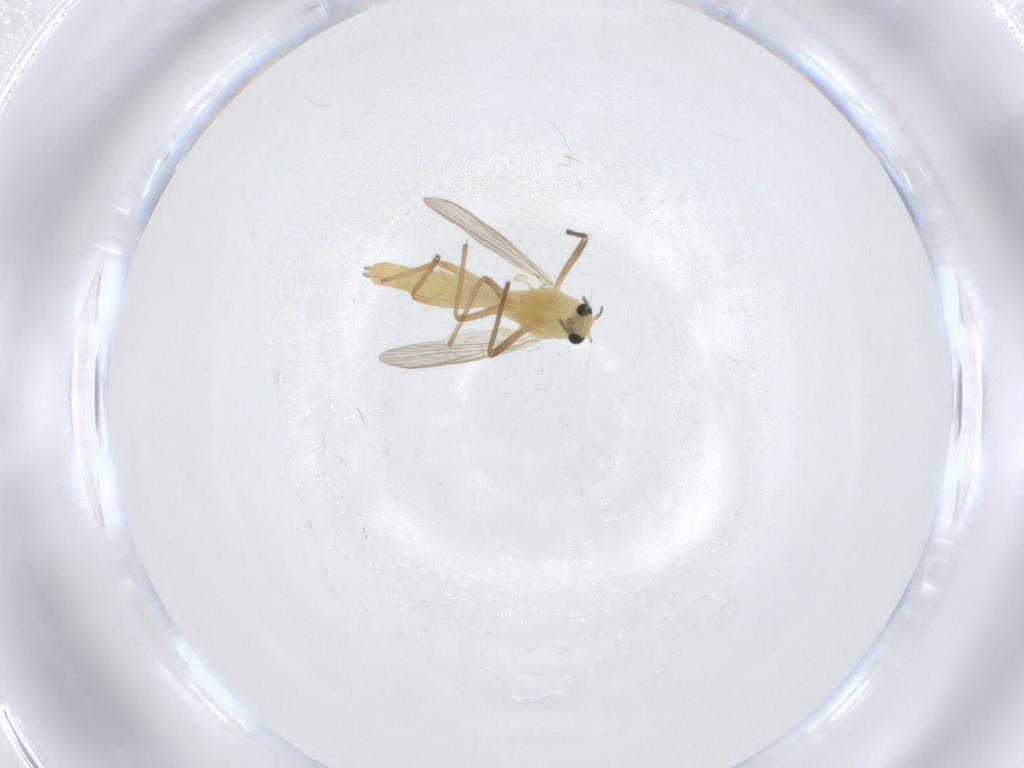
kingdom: Animalia
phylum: Arthropoda
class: Insecta
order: Diptera
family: Chironomidae
